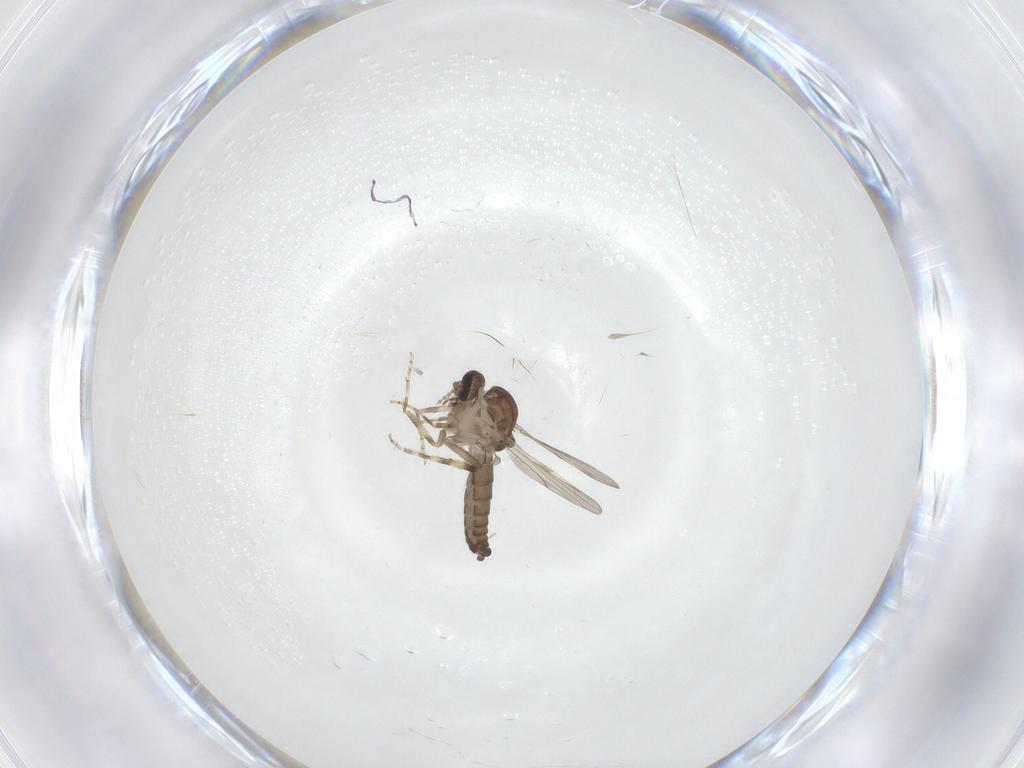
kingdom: Animalia
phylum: Arthropoda
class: Insecta
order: Diptera
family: Ceratopogonidae
